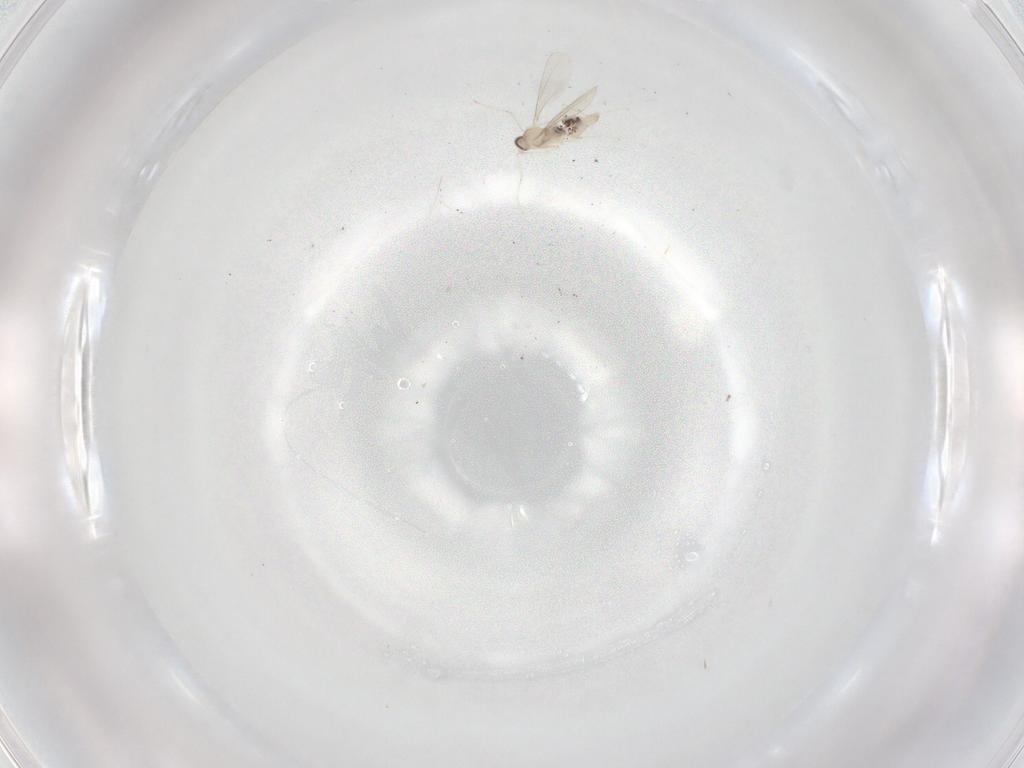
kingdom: Animalia
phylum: Arthropoda
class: Insecta
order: Diptera
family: Cecidomyiidae
